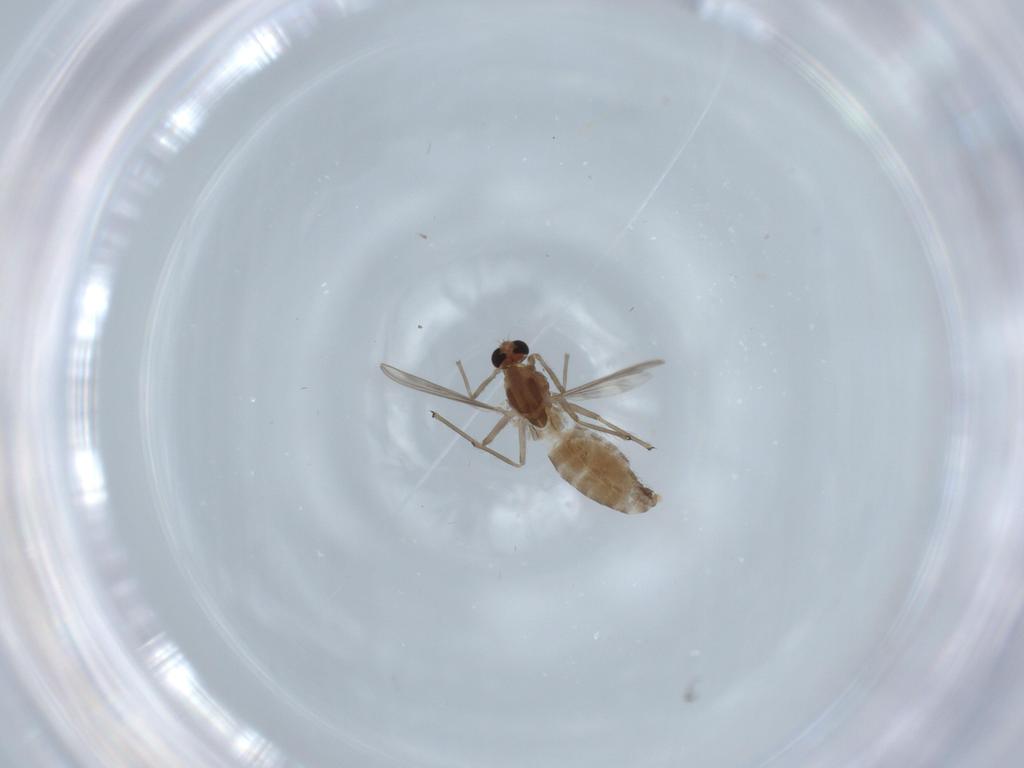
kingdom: Animalia
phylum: Arthropoda
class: Insecta
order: Diptera
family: Chironomidae
